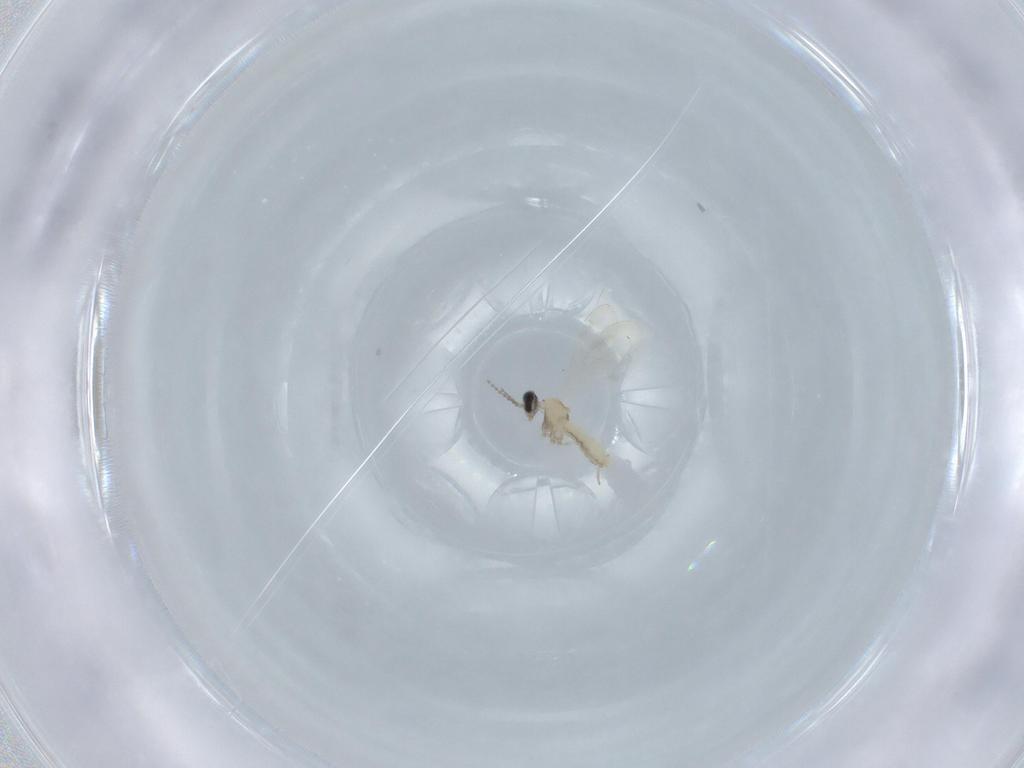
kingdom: Animalia
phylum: Arthropoda
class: Insecta
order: Diptera
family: Cecidomyiidae
